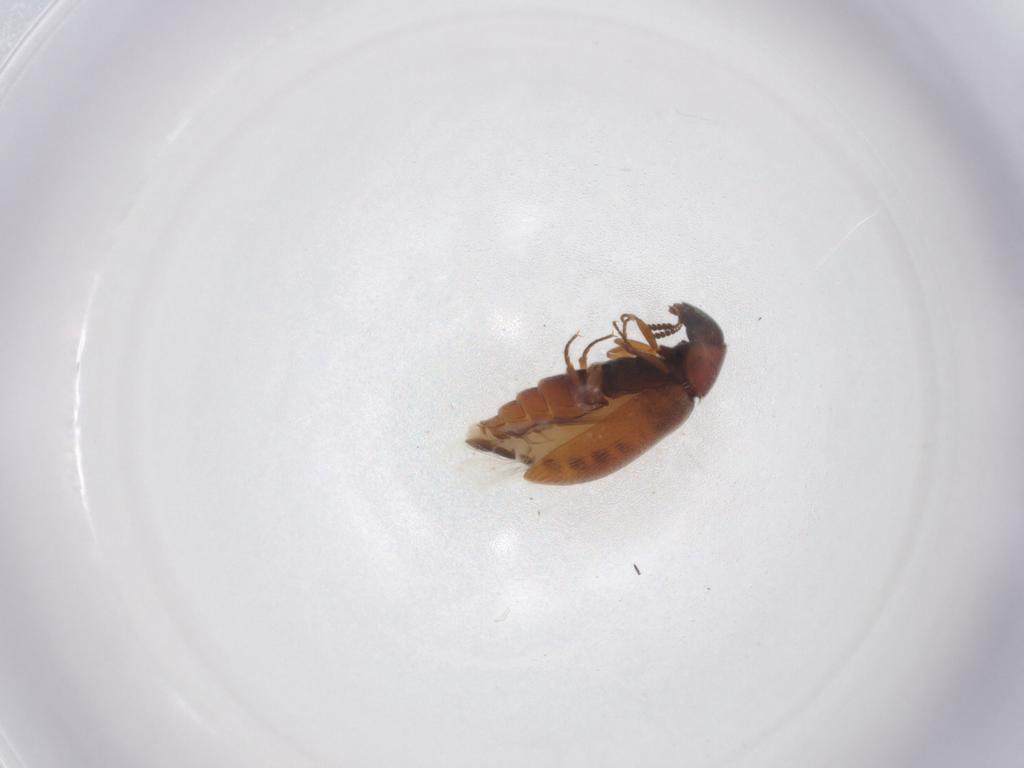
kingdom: Animalia
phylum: Arthropoda
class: Insecta
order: Coleoptera
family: Rhadalidae
